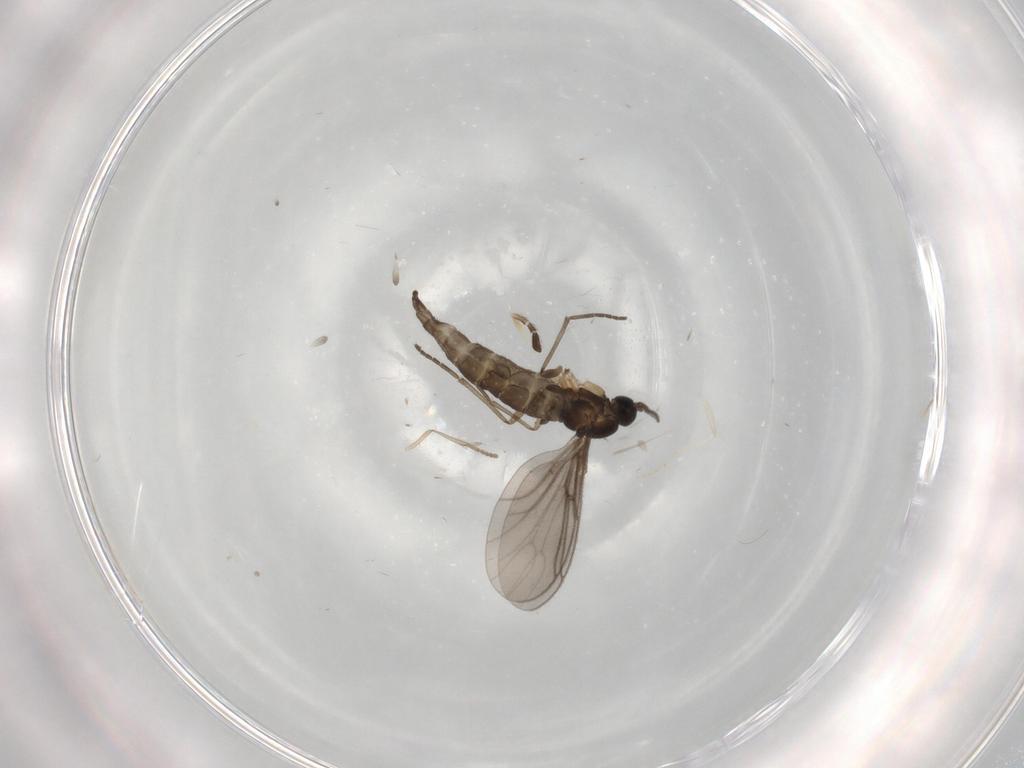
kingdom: Animalia
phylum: Arthropoda
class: Insecta
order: Diptera
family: Sciaridae
